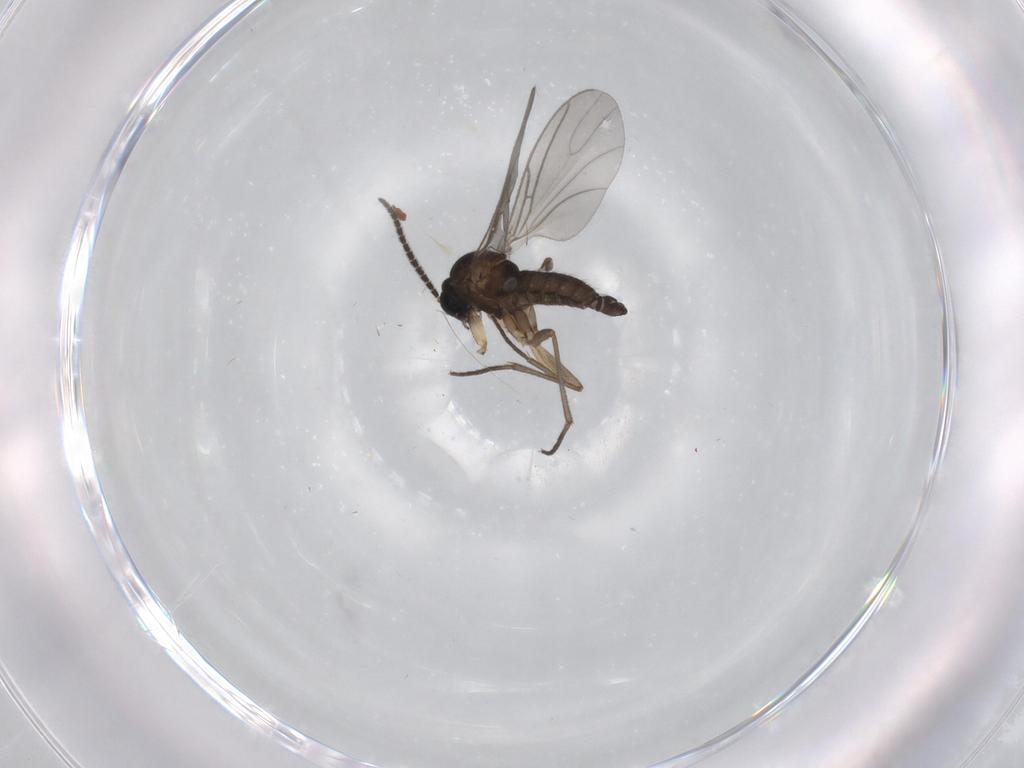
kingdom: Animalia
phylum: Arthropoda
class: Insecta
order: Diptera
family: Sciaridae
